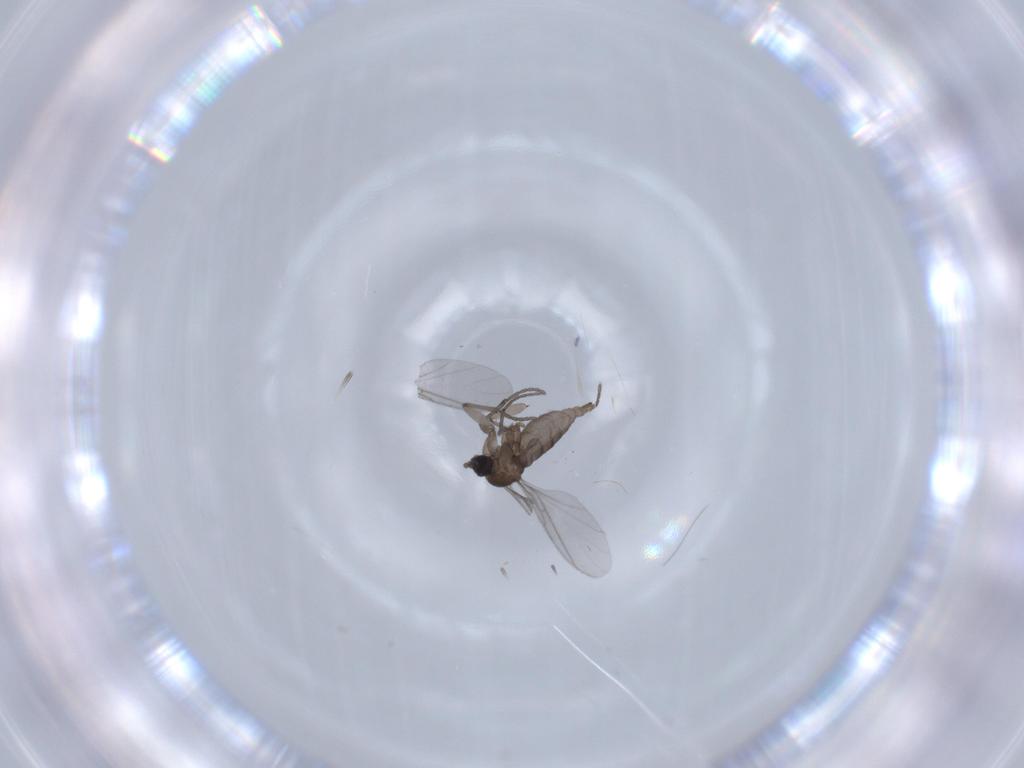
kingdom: Animalia
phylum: Arthropoda
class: Insecta
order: Diptera
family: Sciaridae
